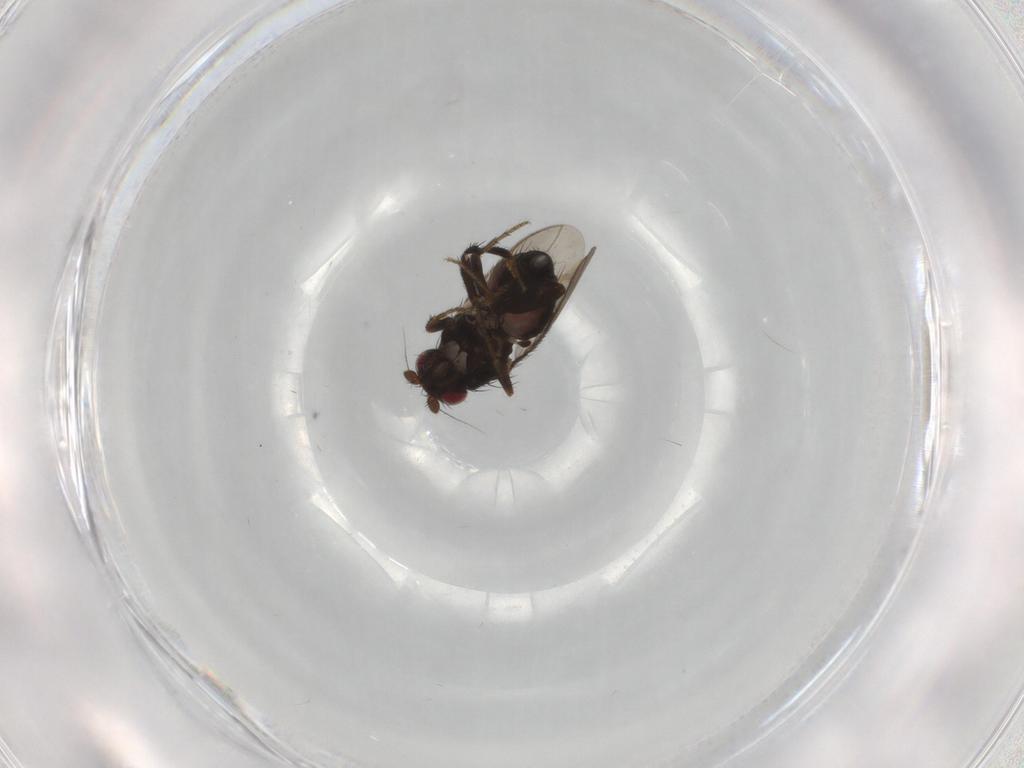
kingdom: Animalia
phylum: Arthropoda
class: Insecta
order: Diptera
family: Sphaeroceridae
